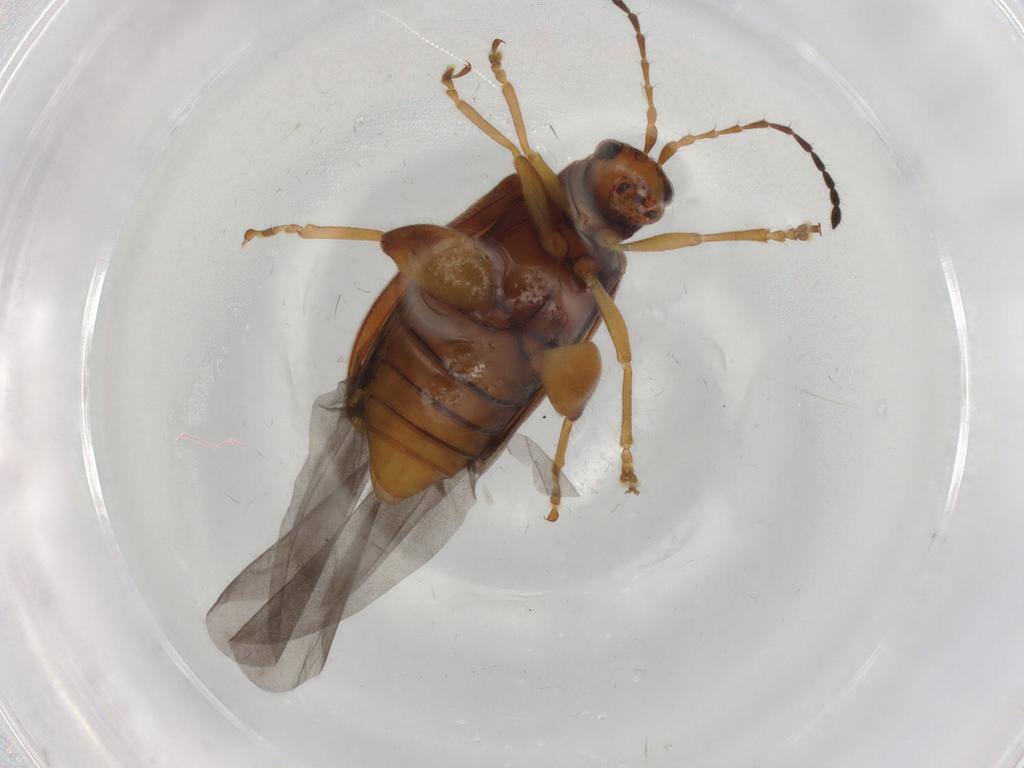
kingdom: Animalia
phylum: Arthropoda
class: Insecta
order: Coleoptera
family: Chrysomelidae
